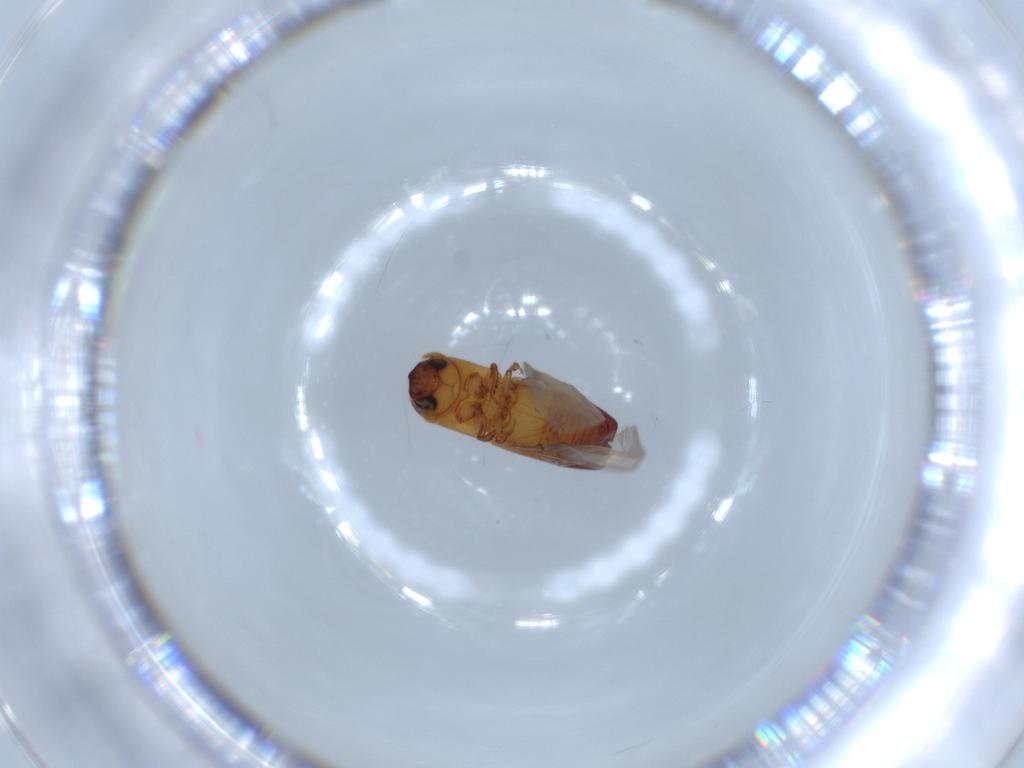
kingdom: Animalia
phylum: Arthropoda
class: Insecta
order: Coleoptera
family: Curculionidae
